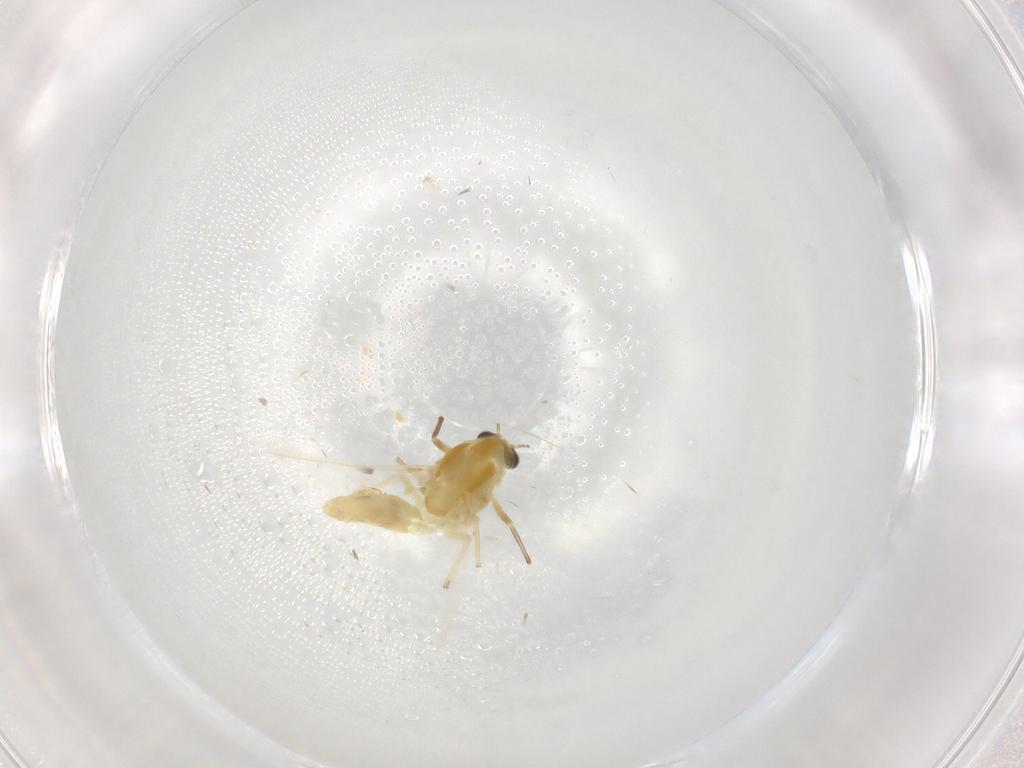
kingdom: Animalia
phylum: Arthropoda
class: Insecta
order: Diptera
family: Chironomidae
